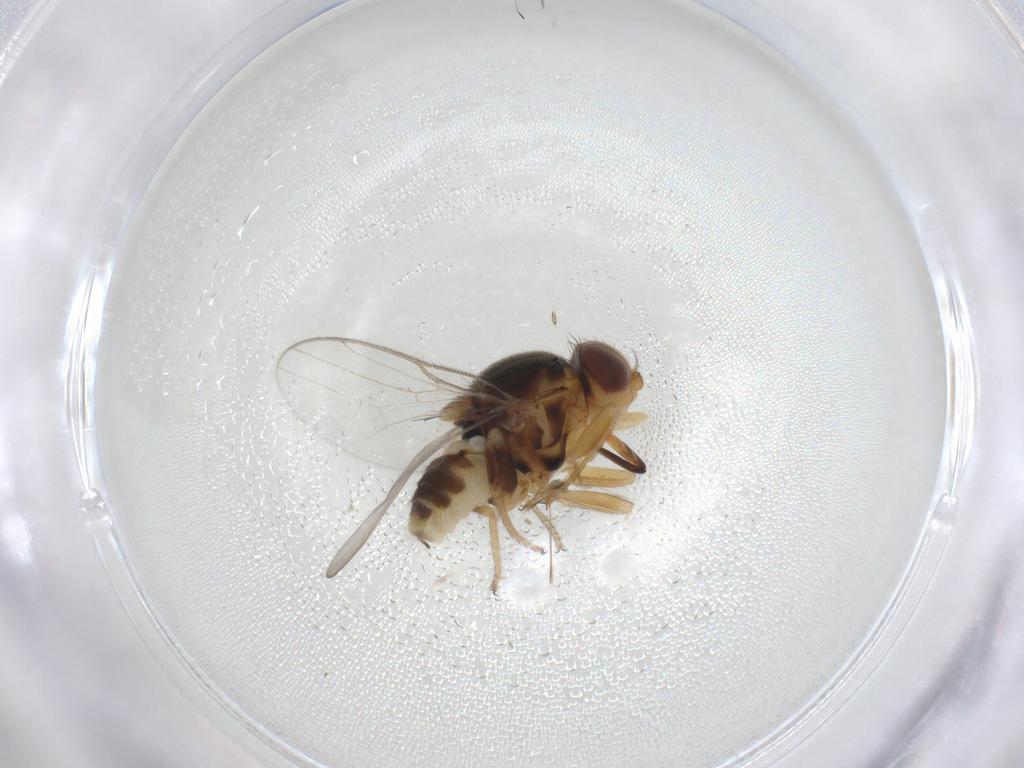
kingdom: Animalia
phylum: Arthropoda
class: Insecta
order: Diptera
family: Chloropidae
